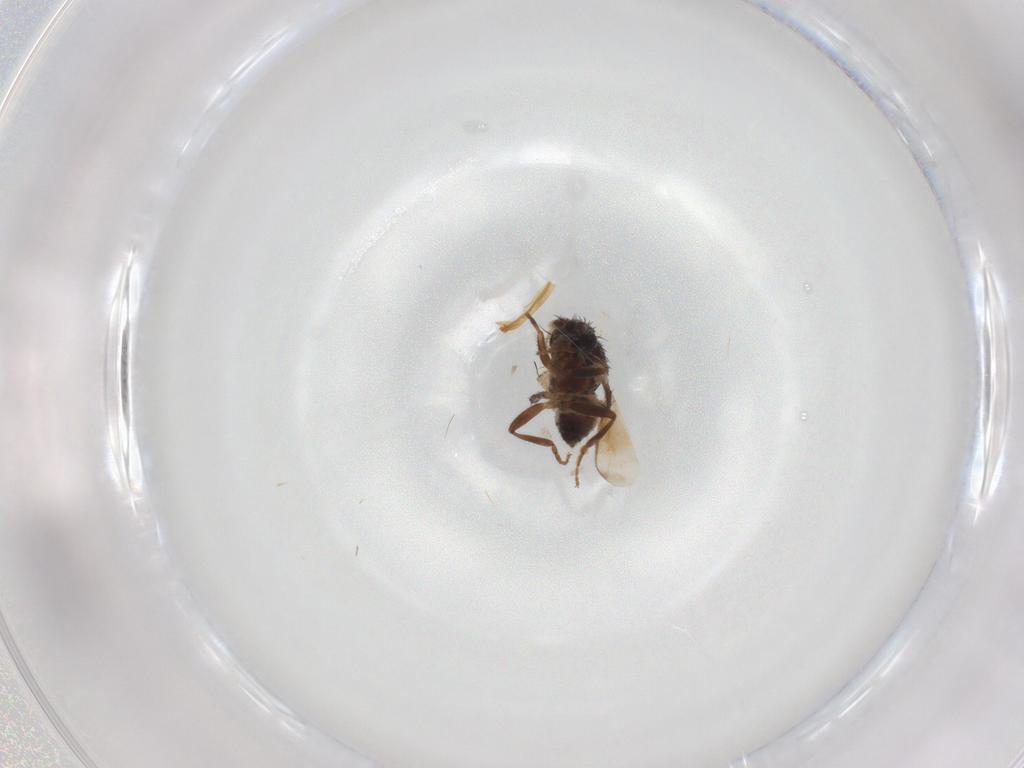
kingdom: Animalia
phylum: Arthropoda
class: Insecta
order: Diptera
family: Sphaeroceridae
